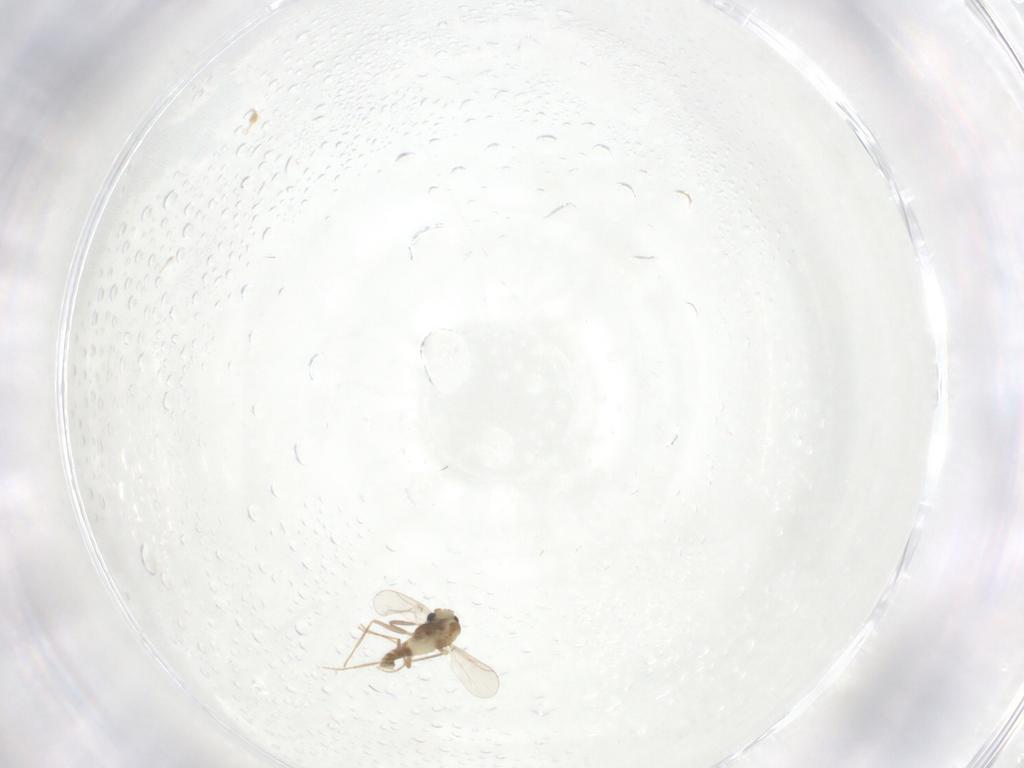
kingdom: Animalia
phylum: Arthropoda
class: Insecta
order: Diptera
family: Chironomidae
